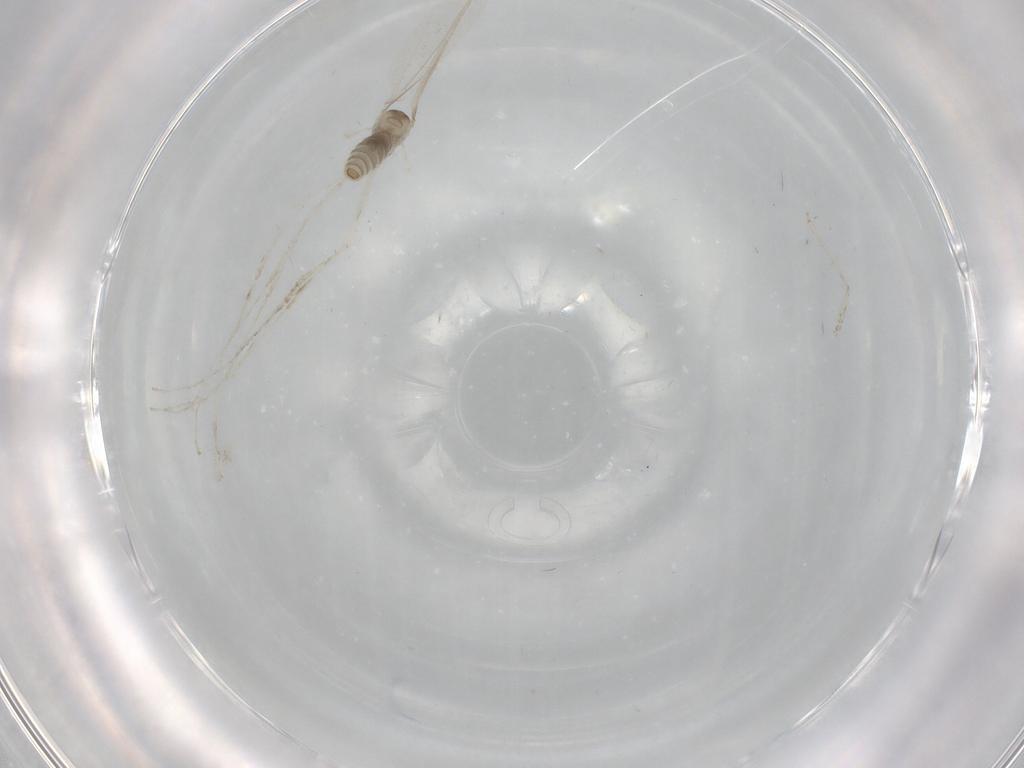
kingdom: Animalia
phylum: Arthropoda
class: Insecta
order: Diptera
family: Cecidomyiidae
